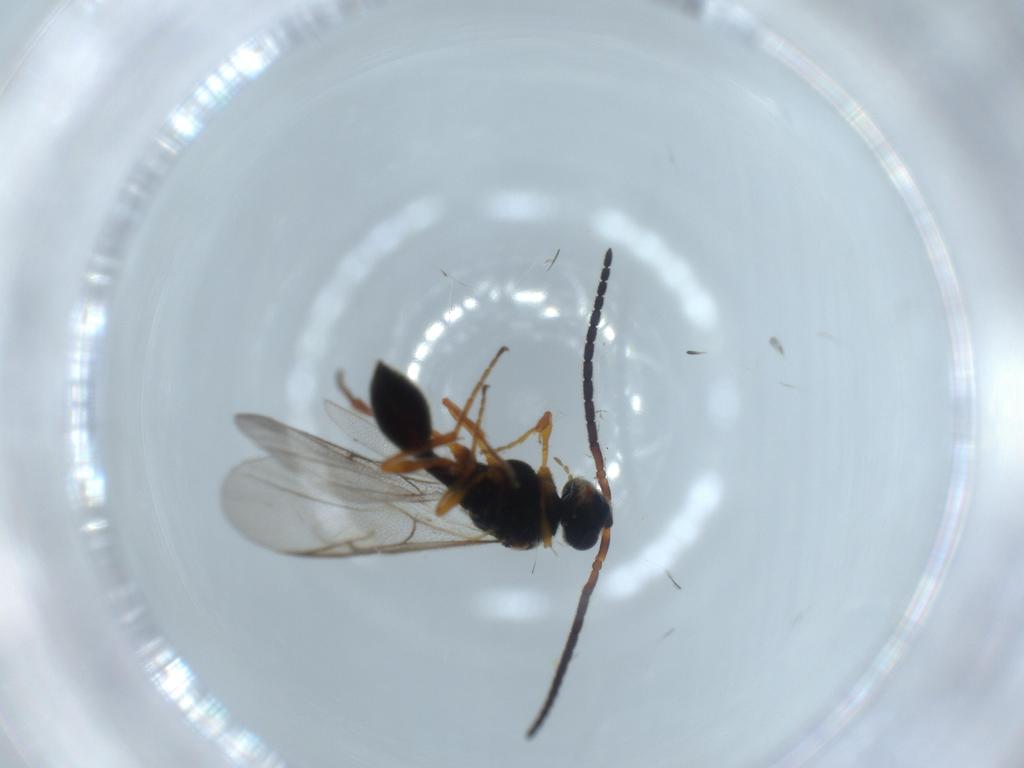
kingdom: Animalia
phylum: Arthropoda
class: Insecta
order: Hymenoptera
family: Diapriidae
